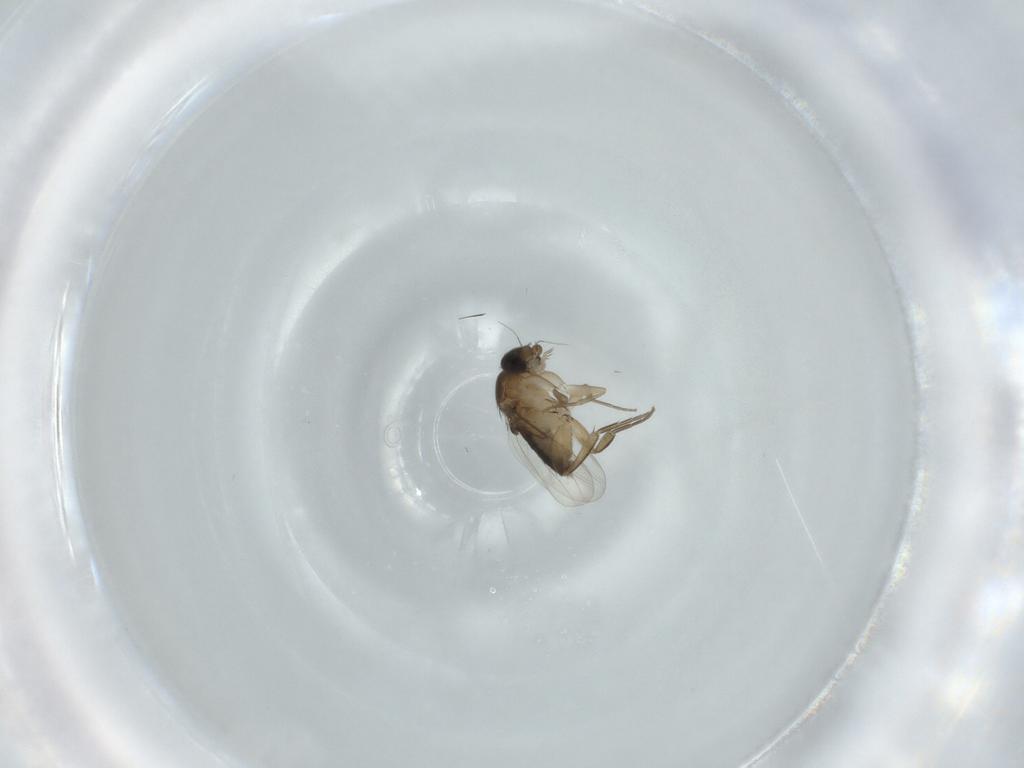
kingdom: Animalia
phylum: Arthropoda
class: Insecta
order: Diptera
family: Phoridae
